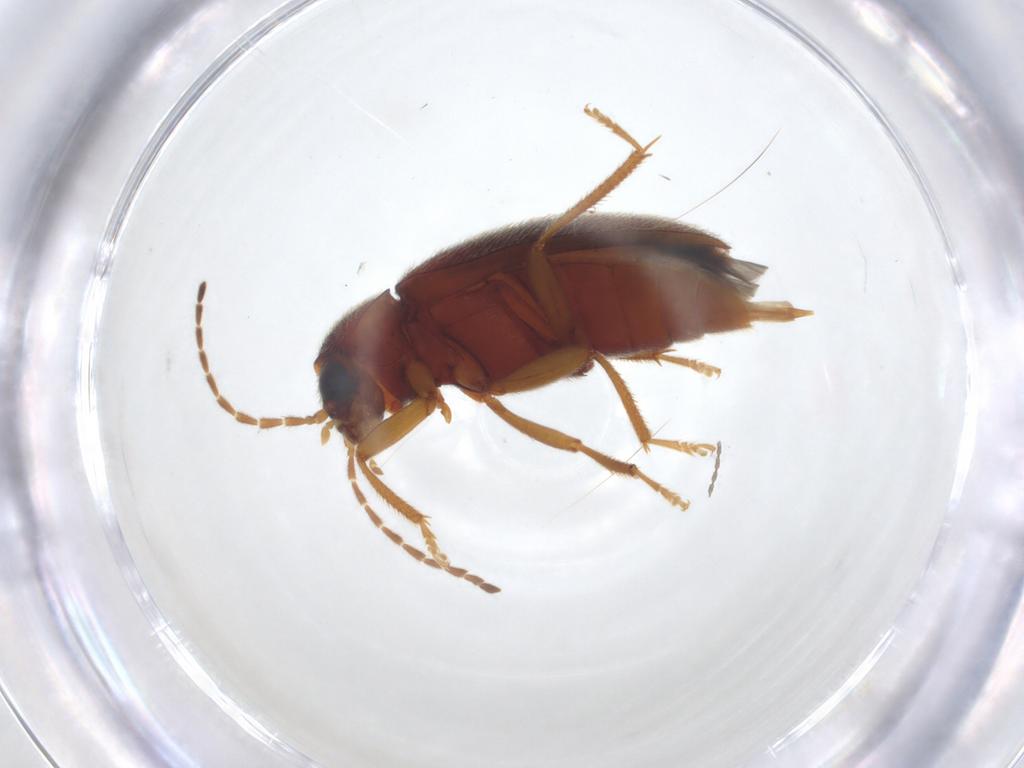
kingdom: Animalia
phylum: Arthropoda
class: Insecta
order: Coleoptera
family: Ptilodactylidae
